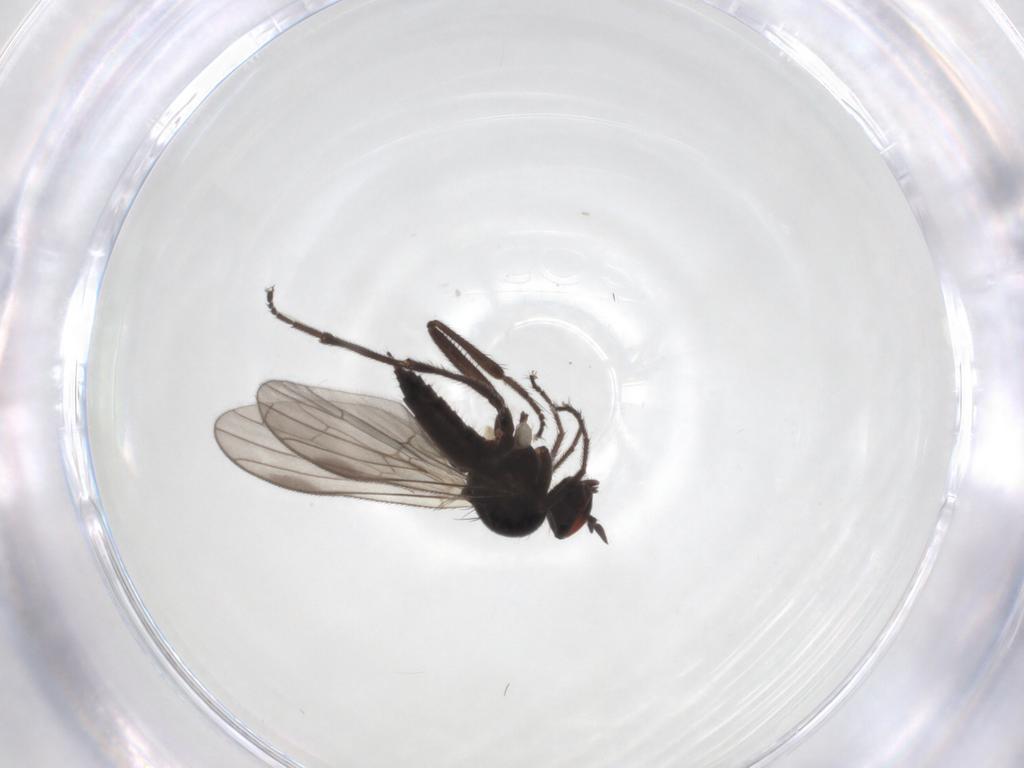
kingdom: Animalia
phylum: Arthropoda
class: Insecta
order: Diptera
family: Hybotidae
